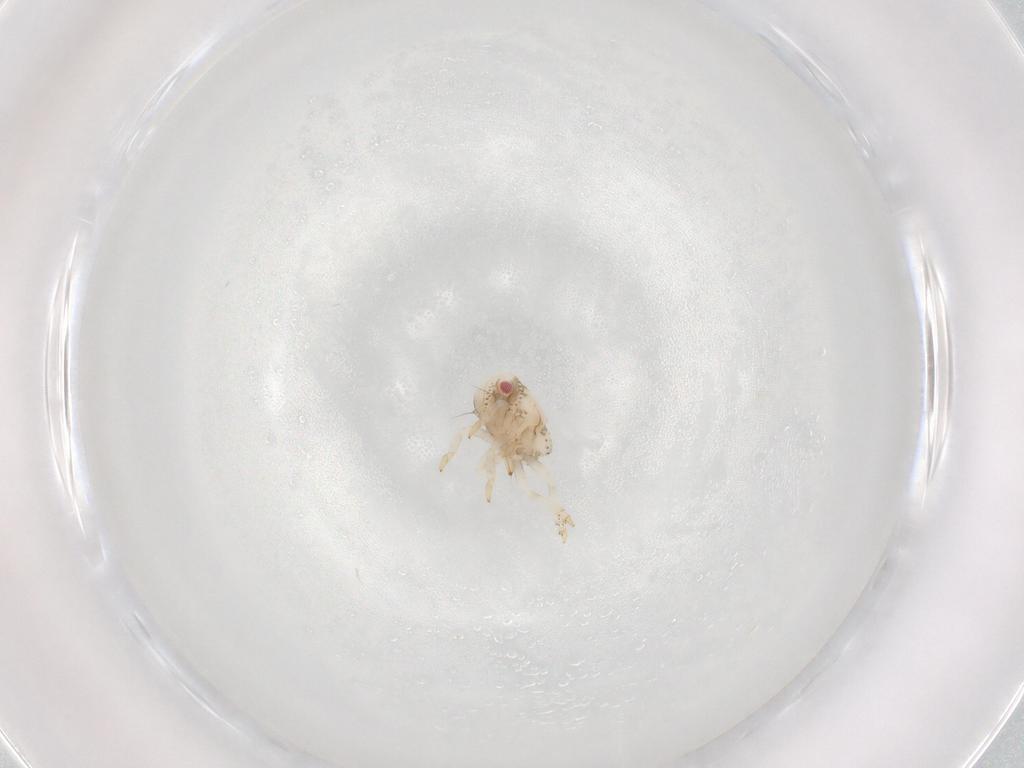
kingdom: Animalia
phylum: Arthropoda
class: Insecta
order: Hemiptera
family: Acanaloniidae
